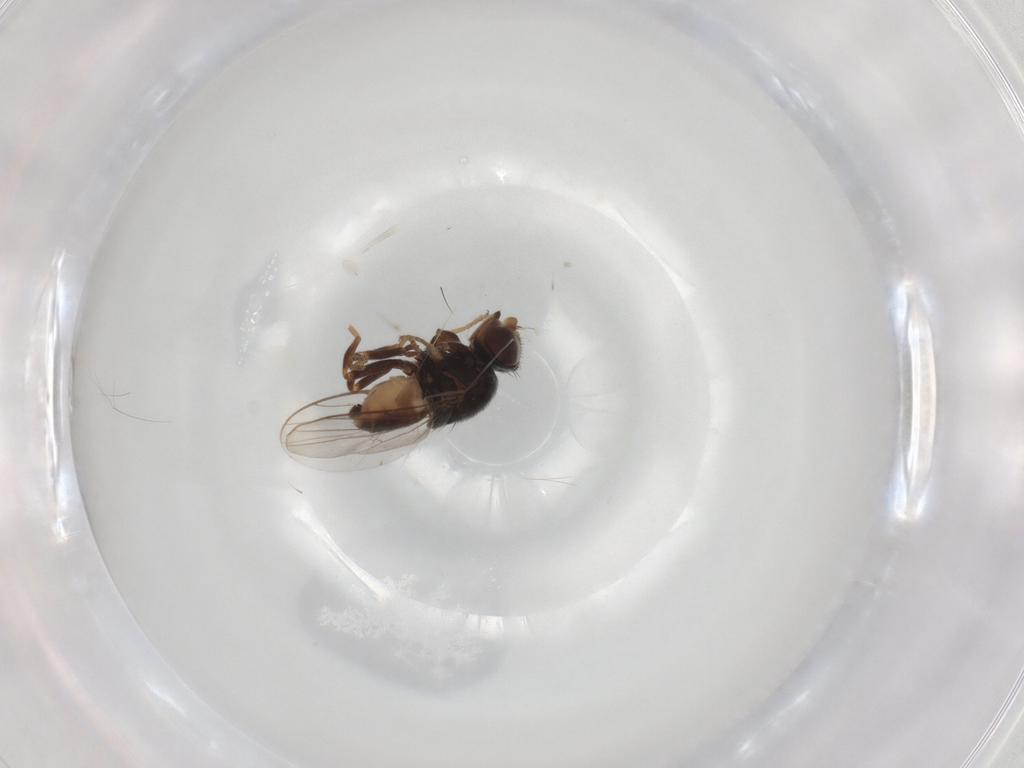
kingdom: Animalia
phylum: Arthropoda
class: Insecta
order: Diptera
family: Chloropidae
